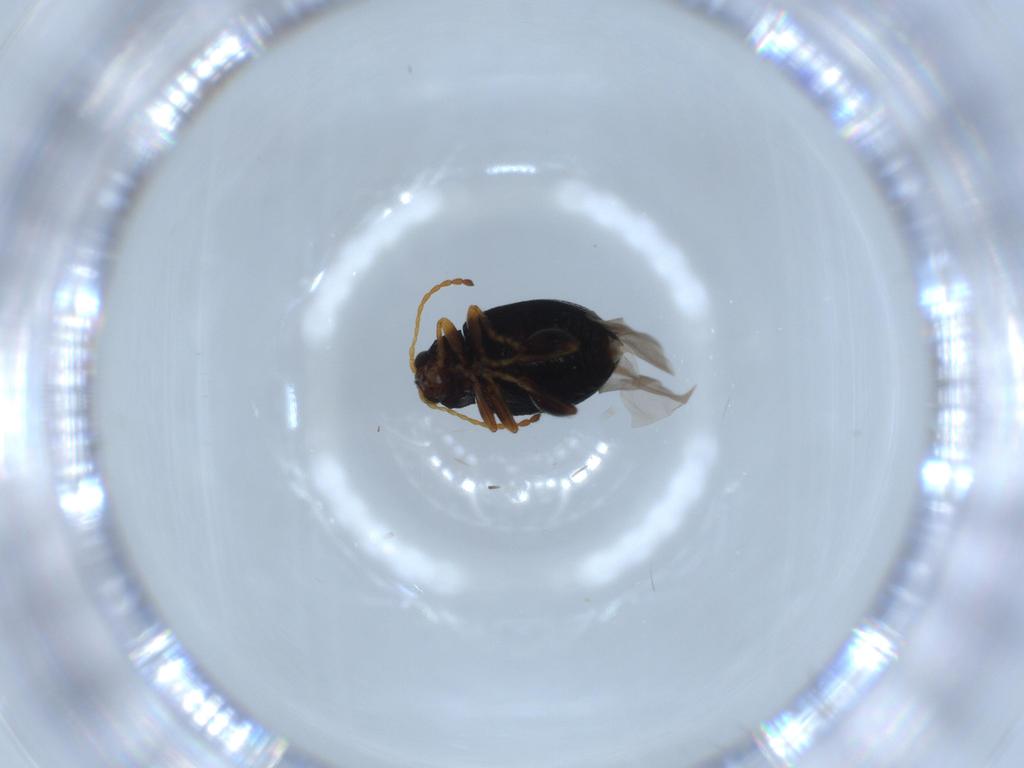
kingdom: Animalia
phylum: Arthropoda
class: Insecta
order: Coleoptera
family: Chrysomelidae
